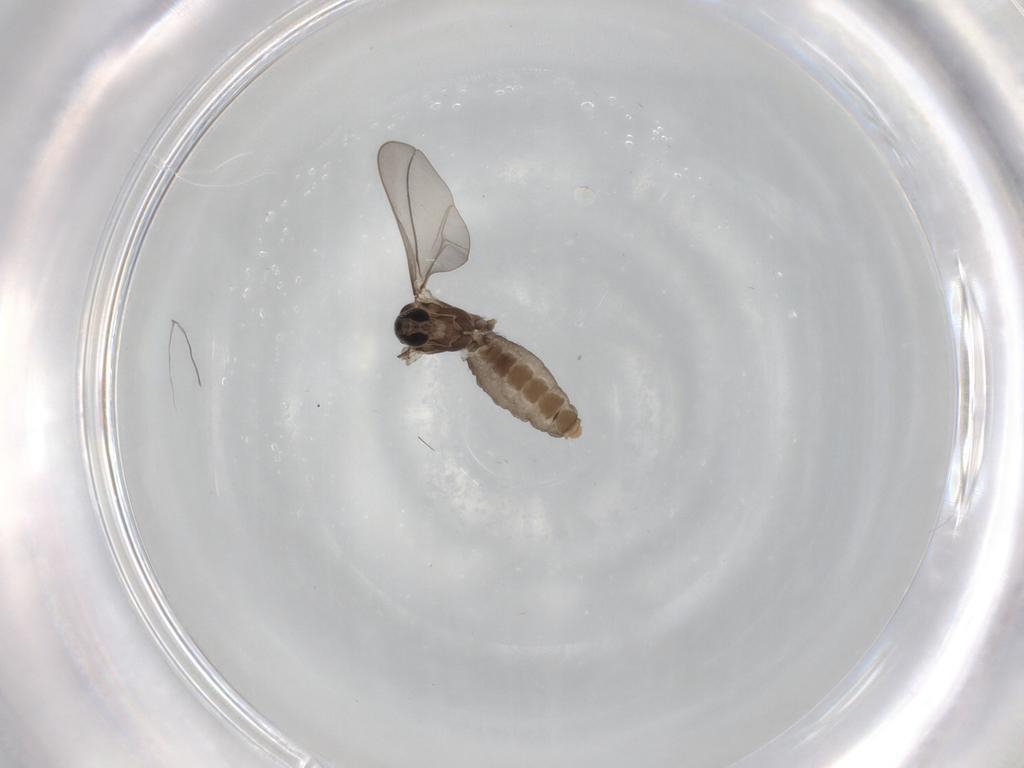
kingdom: Animalia
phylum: Arthropoda
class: Insecta
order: Diptera
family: Cecidomyiidae
